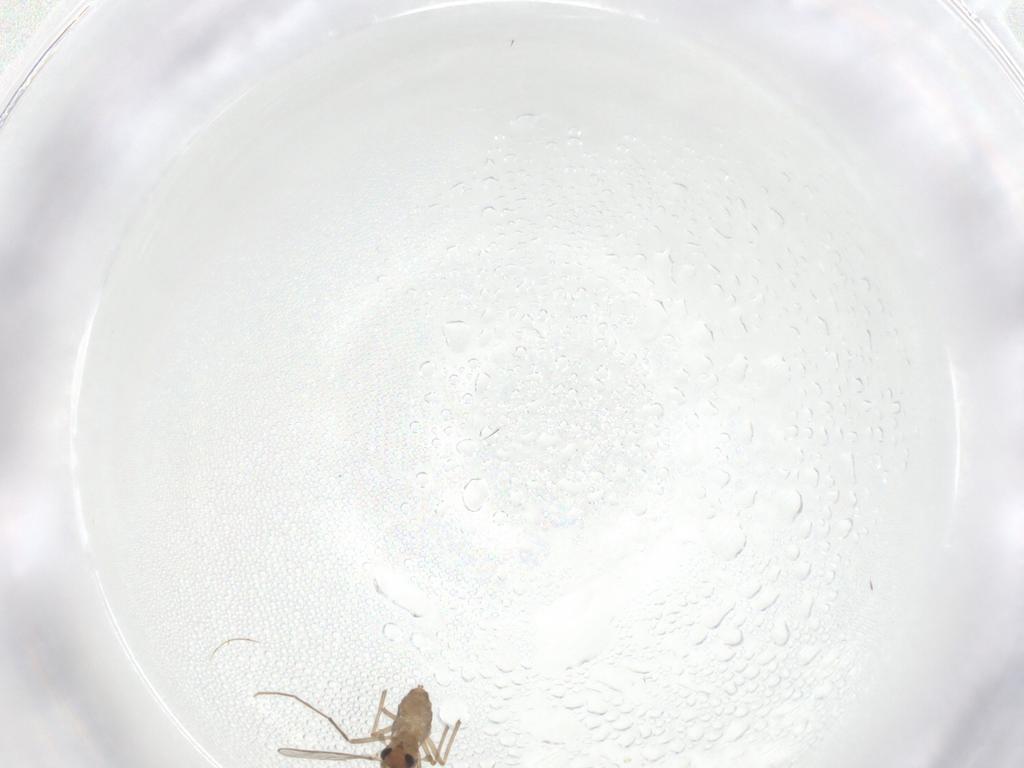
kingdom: Animalia
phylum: Arthropoda
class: Insecta
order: Diptera
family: Chironomidae
